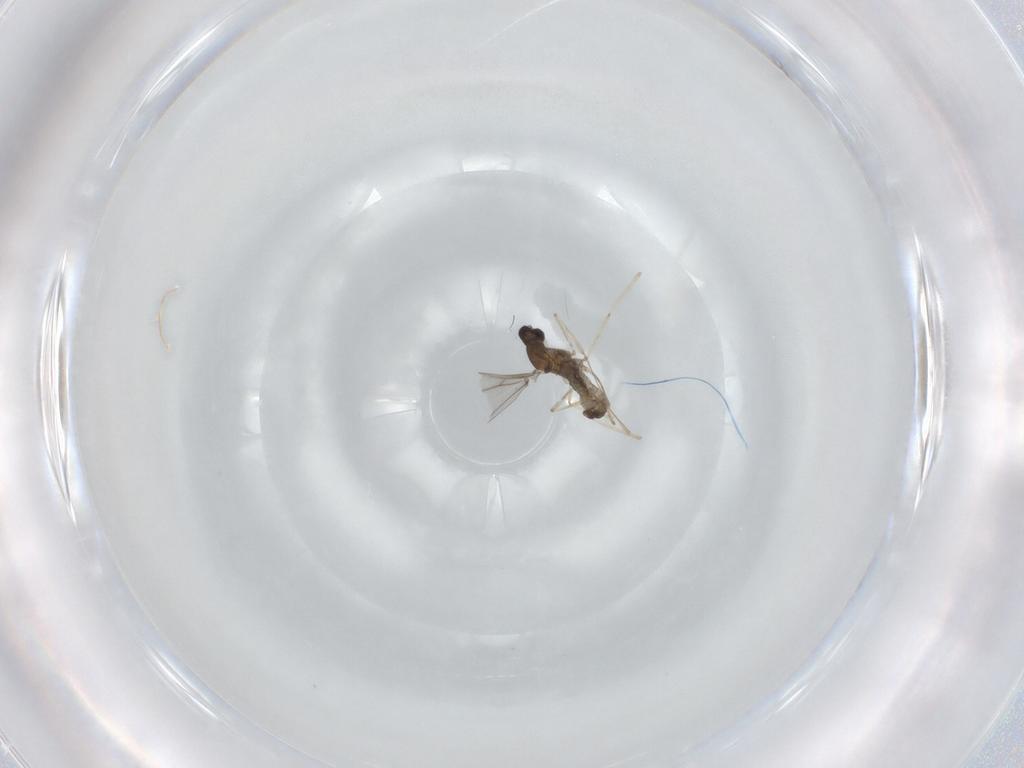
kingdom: Animalia
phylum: Arthropoda
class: Insecta
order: Diptera
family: Cecidomyiidae
